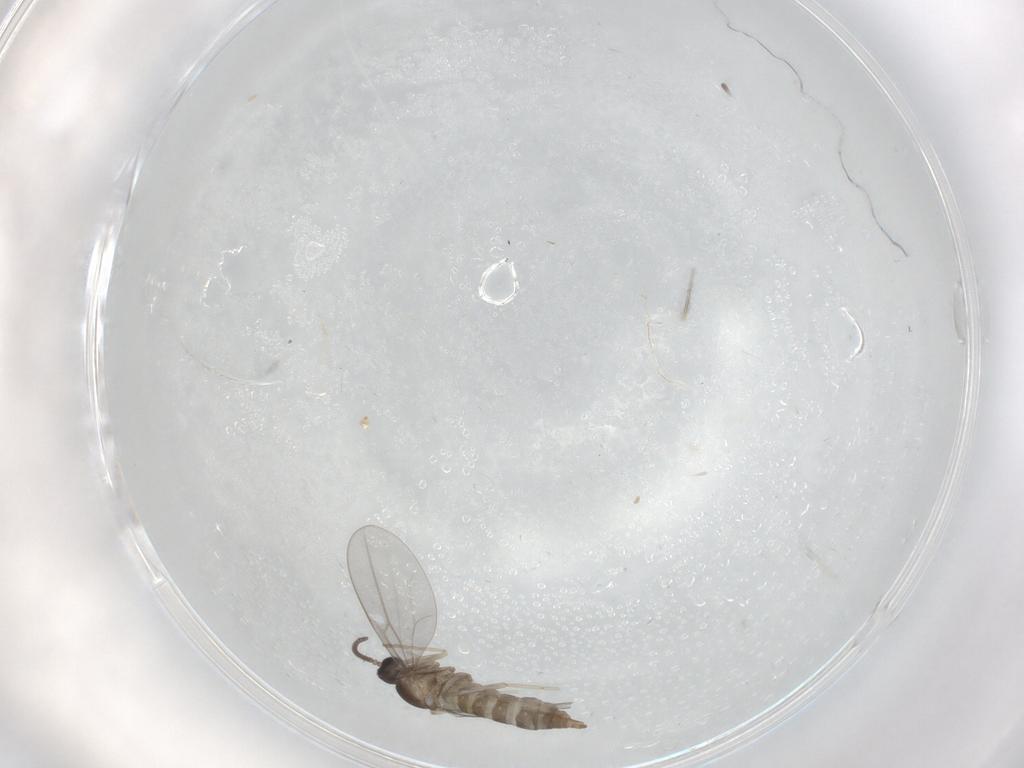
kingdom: Animalia
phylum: Arthropoda
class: Insecta
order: Diptera
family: Cecidomyiidae
